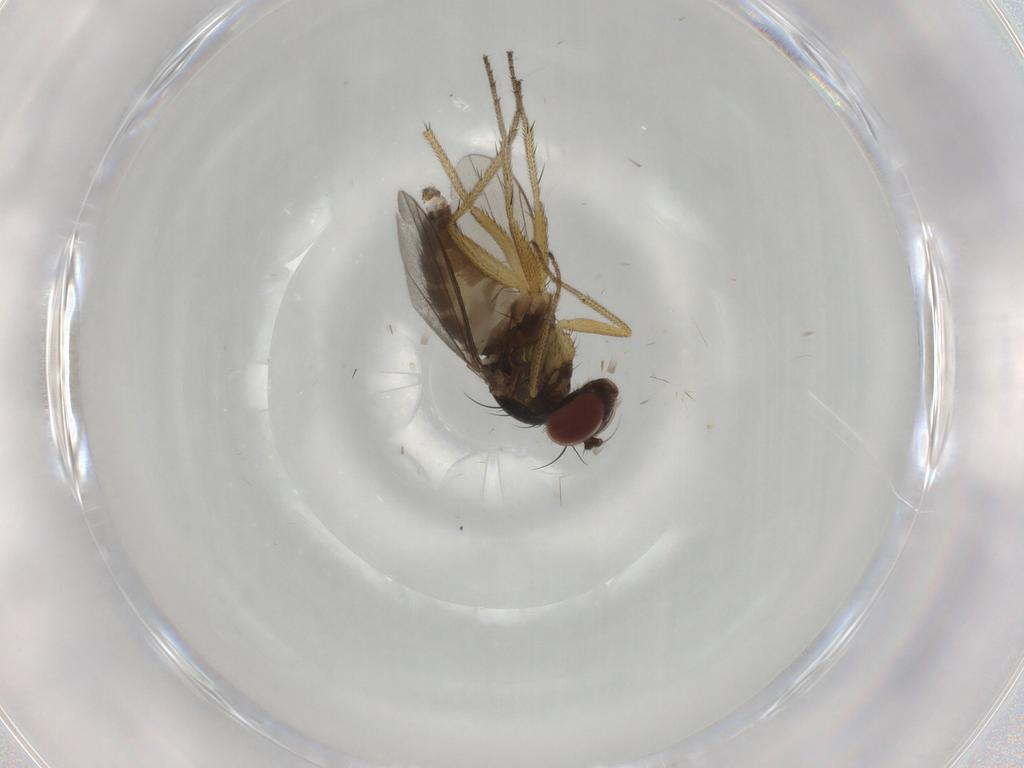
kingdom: Animalia
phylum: Arthropoda
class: Insecta
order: Diptera
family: Dolichopodidae
